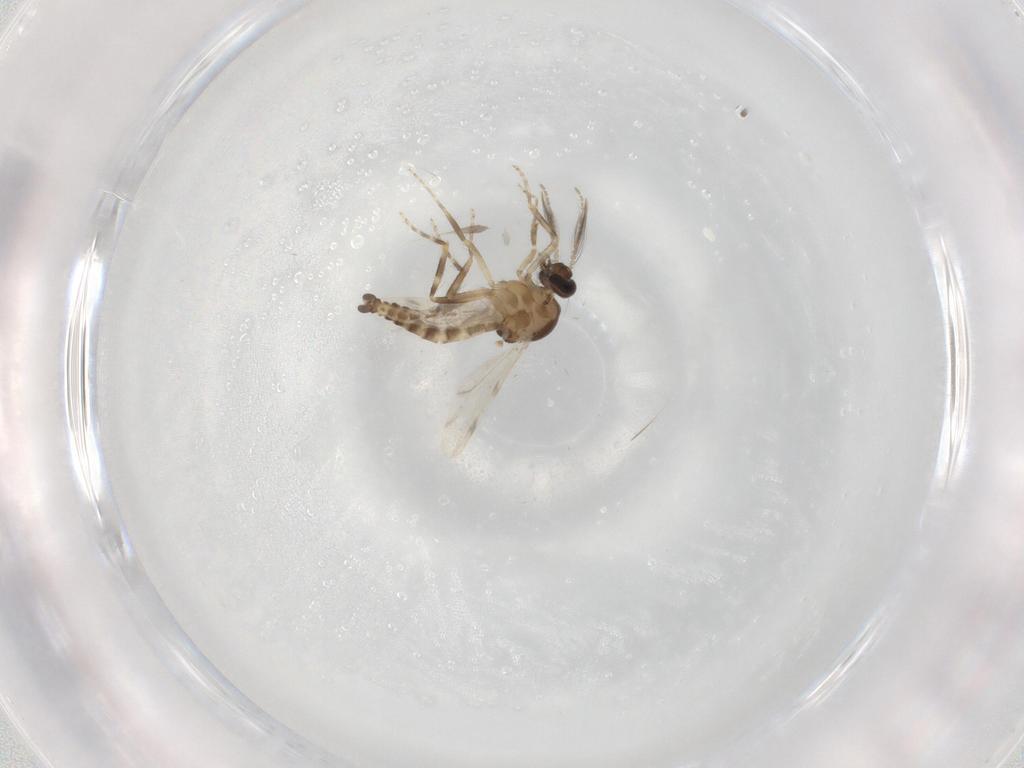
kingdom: Animalia
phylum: Arthropoda
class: Insecta
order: Diptera
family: Ceratopogonidae
